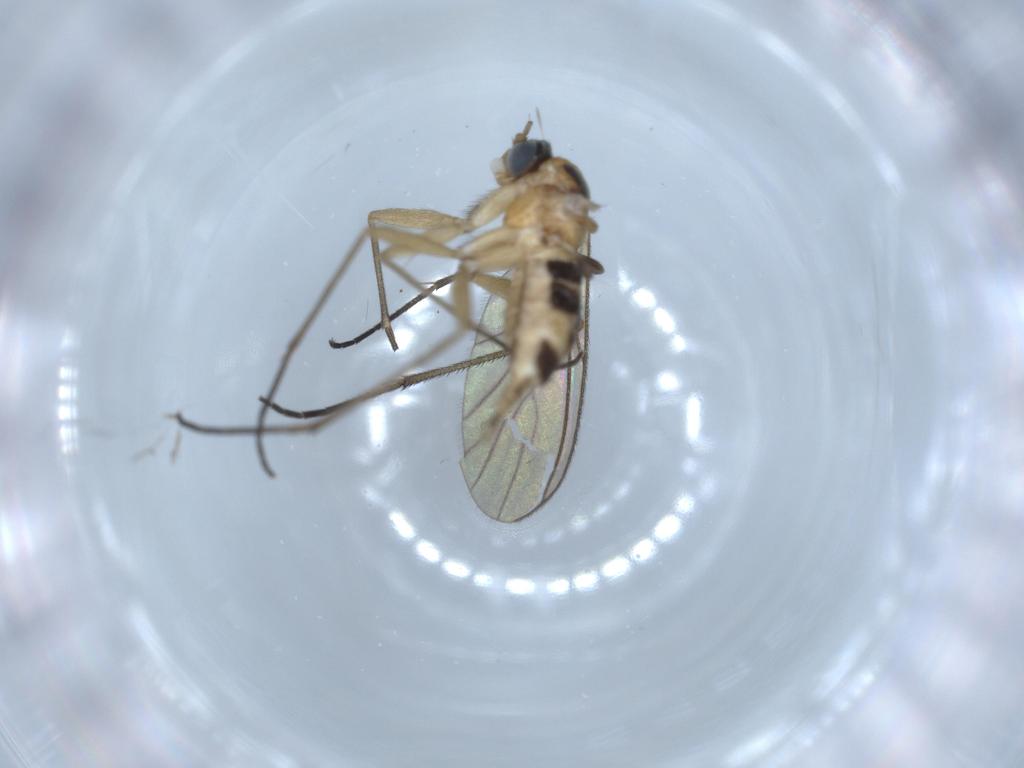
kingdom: Animalia
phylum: Arthropoda
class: Insecta
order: Diptera
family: Sciaridae
